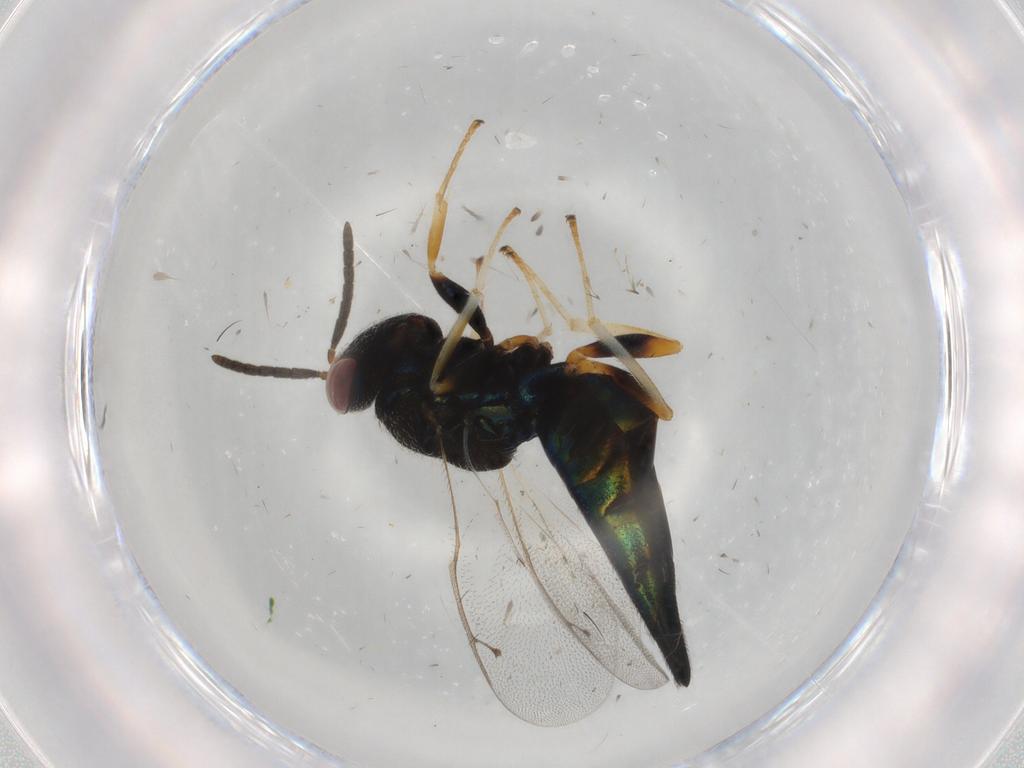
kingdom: Animalia
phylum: Arthropoda
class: Insecta
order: Hymenoptera
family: Pteromalidae
